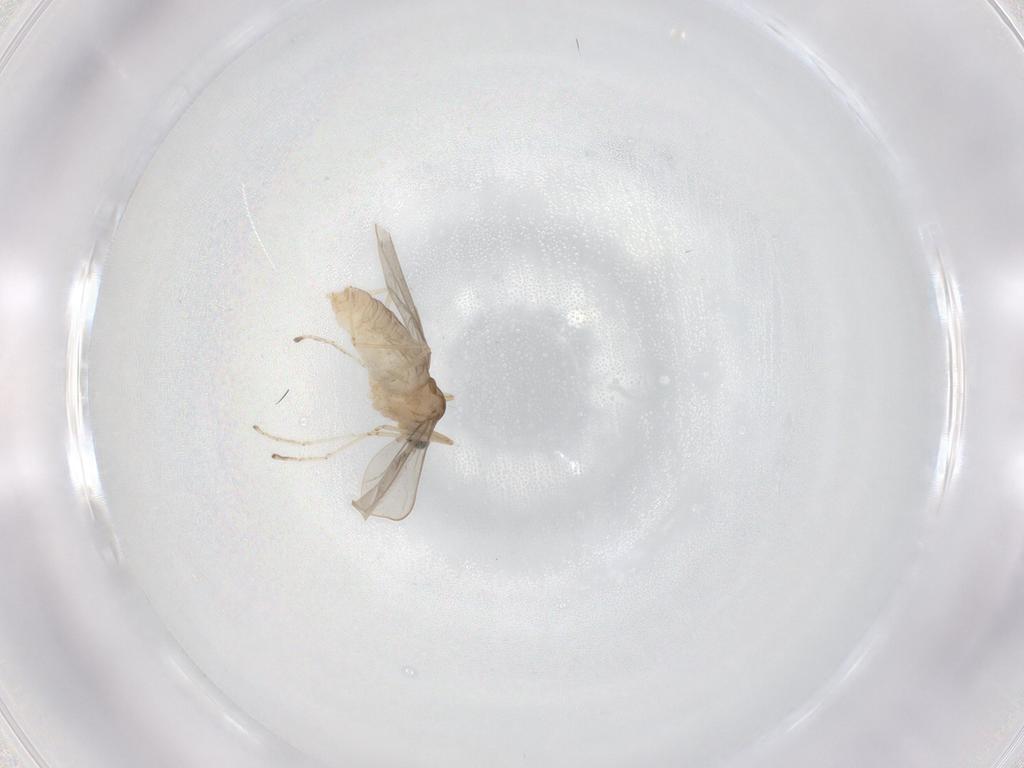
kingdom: Animalia
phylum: Arthropoda
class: Insecta
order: Diptera
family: Cecidomyiidae
